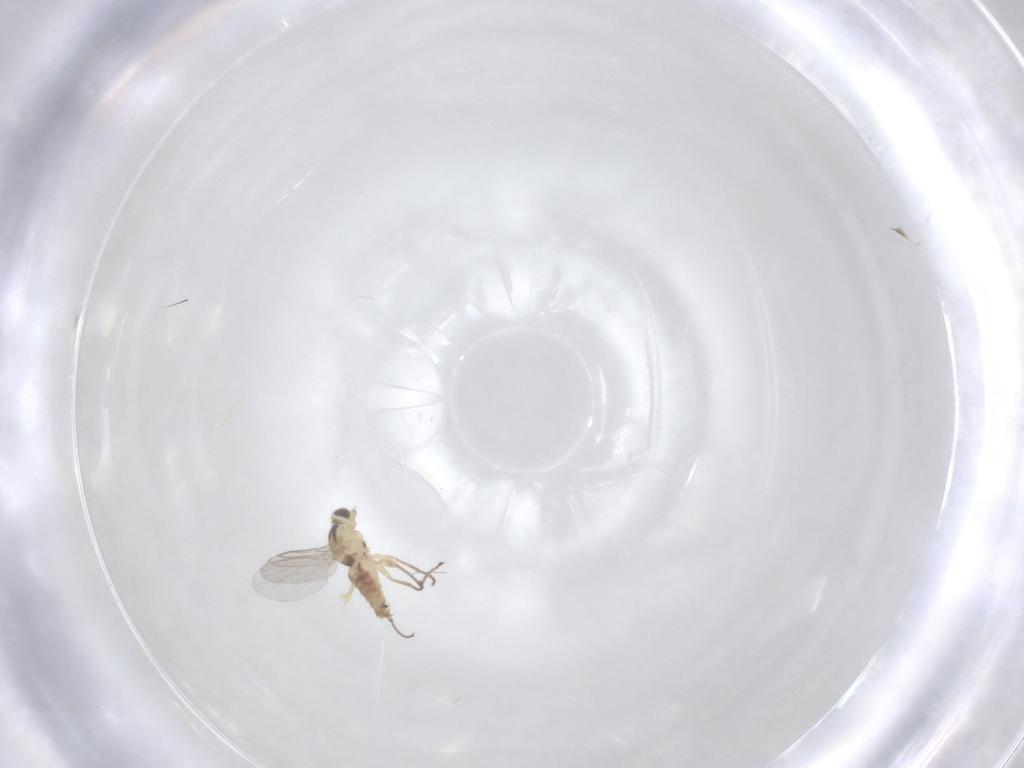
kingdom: Animalia
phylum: Arthropoda
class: Insecta
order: Diptera
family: Agromyzidae
